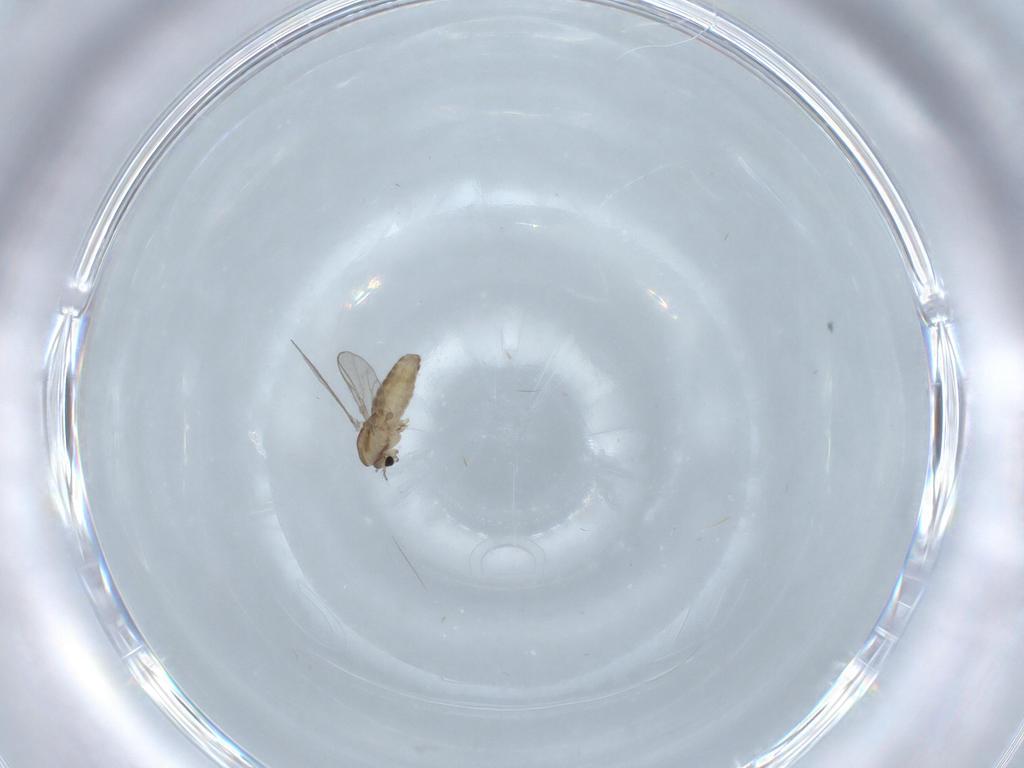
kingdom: Animalia
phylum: Arthropoda
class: Insecta
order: Diptera
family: Chironomidae
